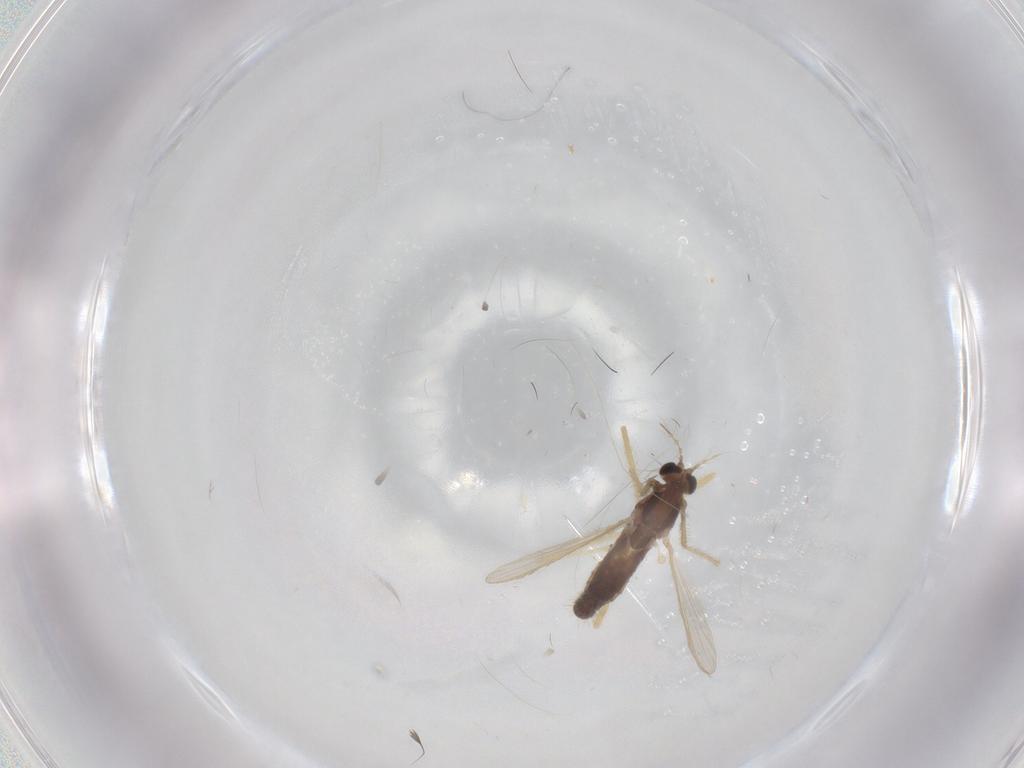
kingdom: Animalia
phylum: Arthropoda
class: Insecta
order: Diptera
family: Chironomidae
